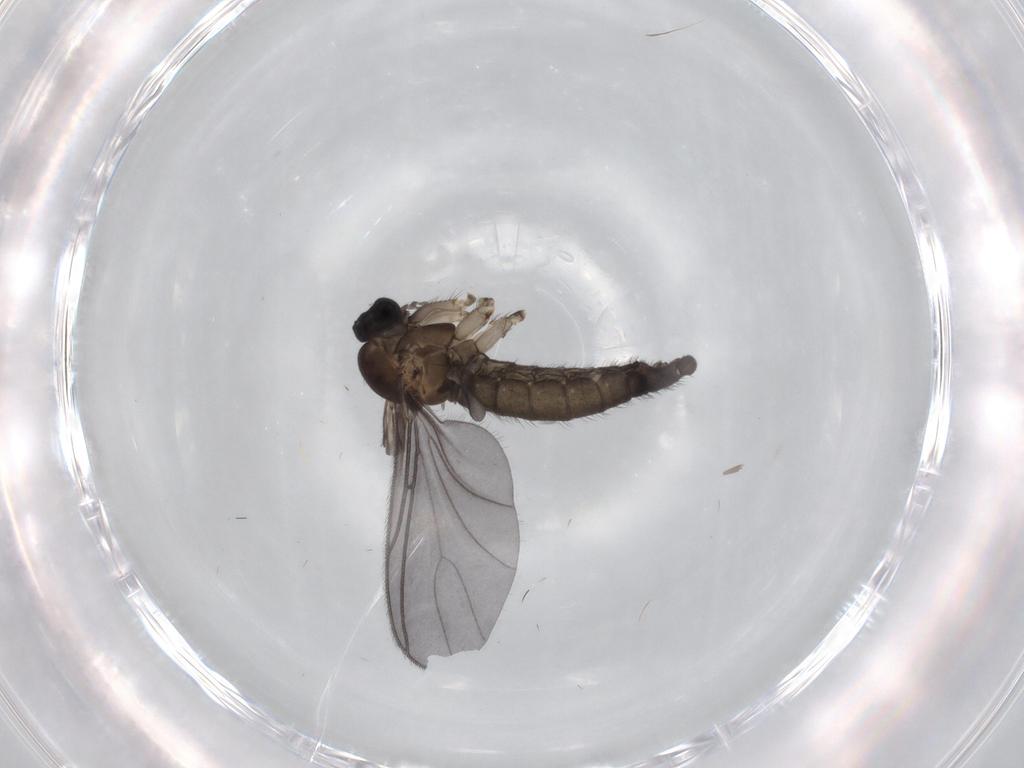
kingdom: Animalia
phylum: Arthropoda
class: Insecta
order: Diptera
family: Sciaridae
